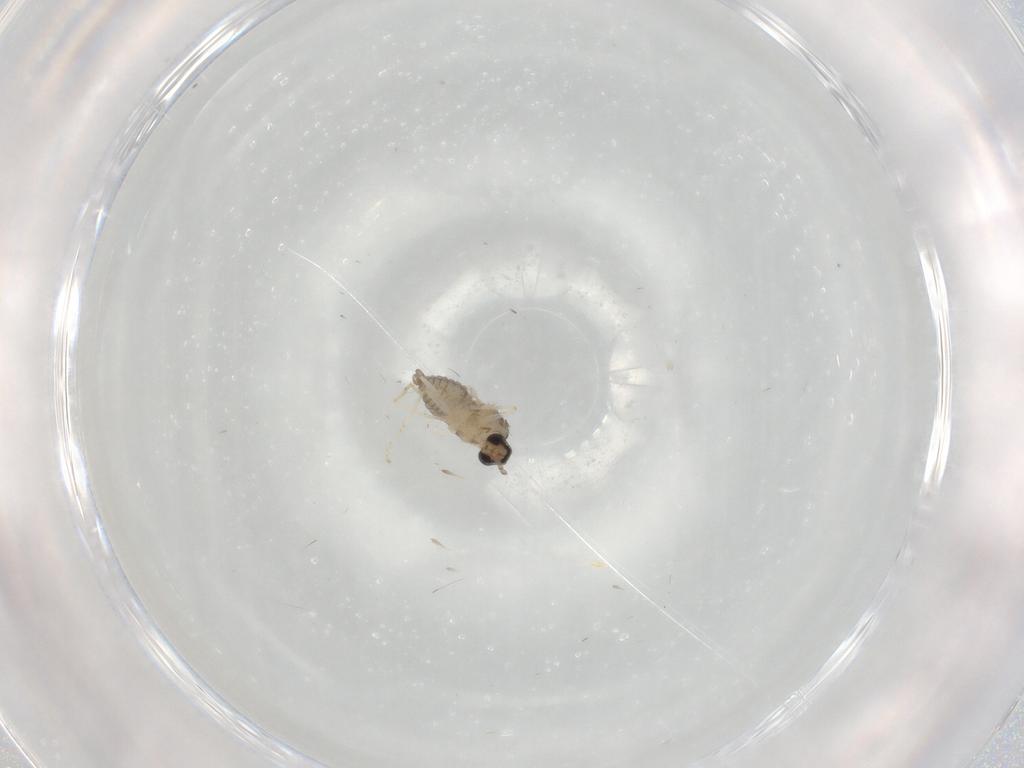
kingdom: Animalia
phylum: Arthropoda
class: Insecta
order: Diptera
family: Cecidomyiidae
